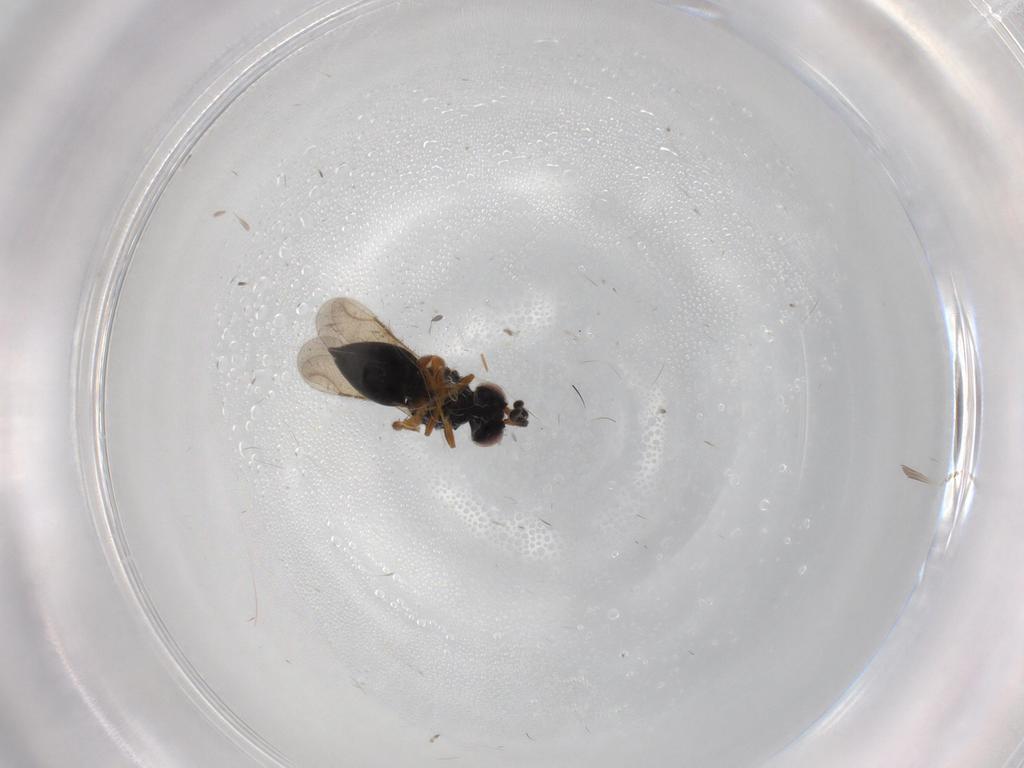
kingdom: Animalia
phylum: Arthropoda
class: Insecta
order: Hymenoptera
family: Formicidae
